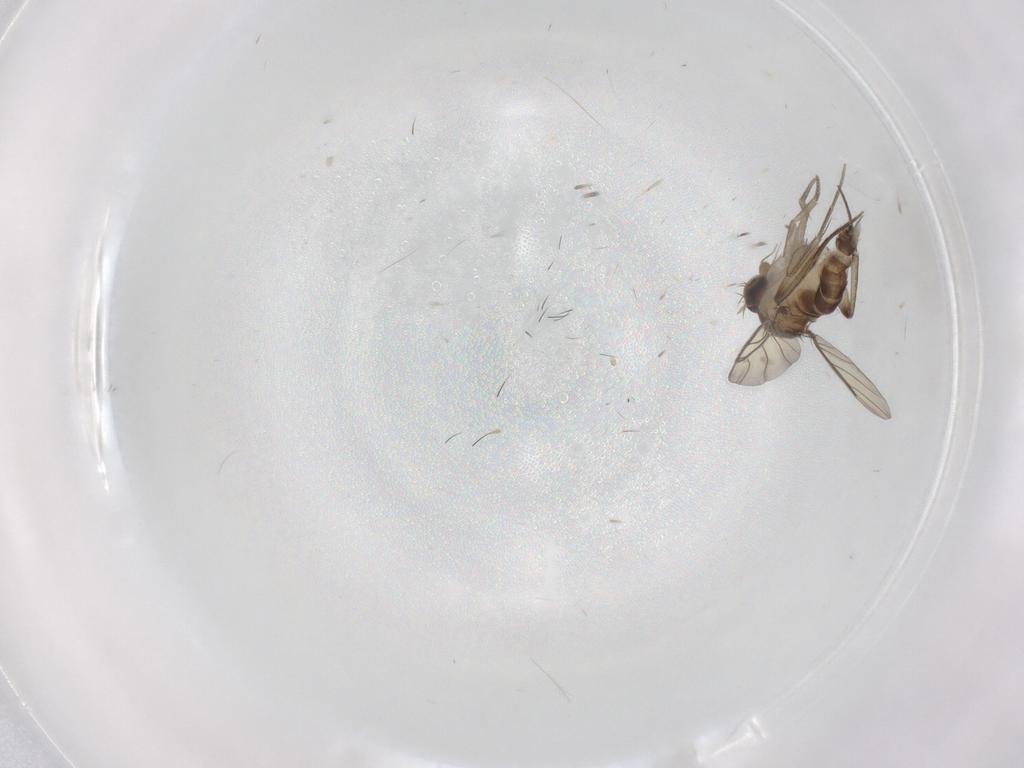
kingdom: Animalia
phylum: Arthropoda
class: Insecta
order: Diptera
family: Phoridae
